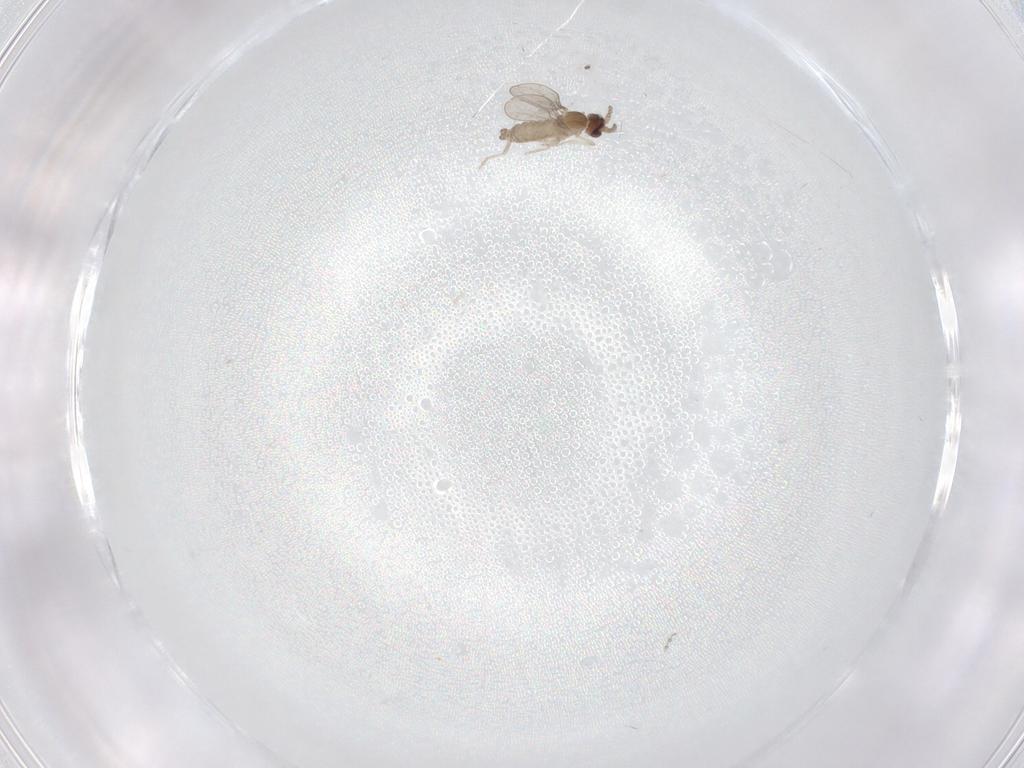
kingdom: Animalia
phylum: Arthropoda
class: Insecta
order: Diptera
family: Cecidomyiidae
